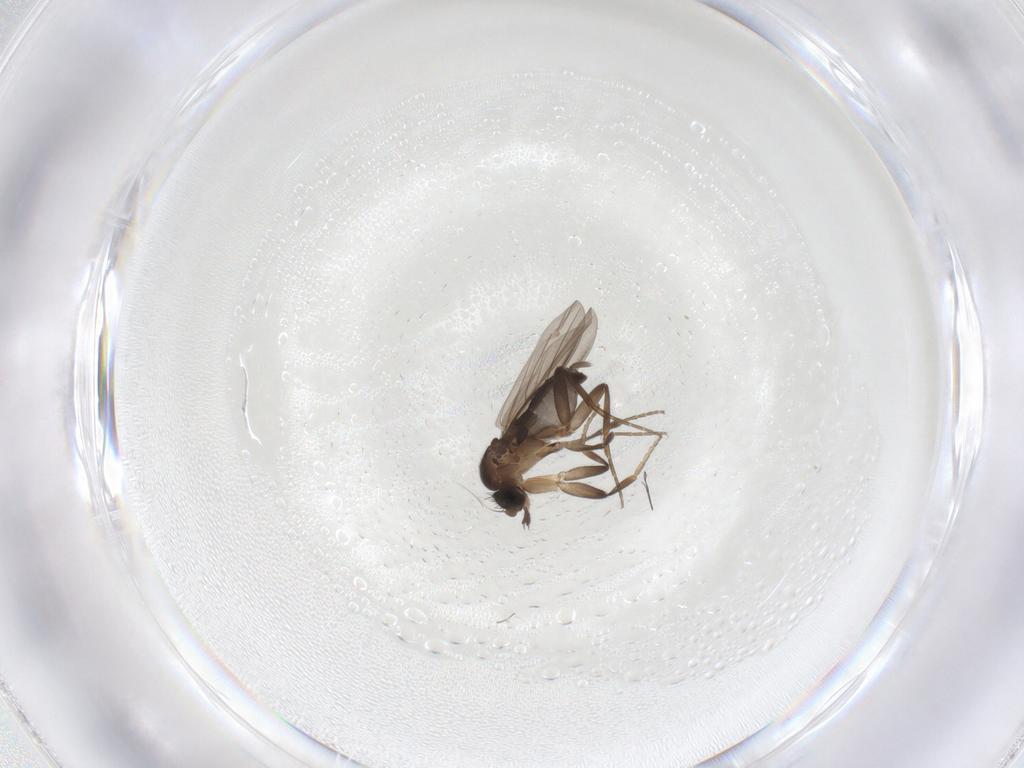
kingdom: Animalia
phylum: Arthropoda
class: Insecta
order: Diptera
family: Phoridae
